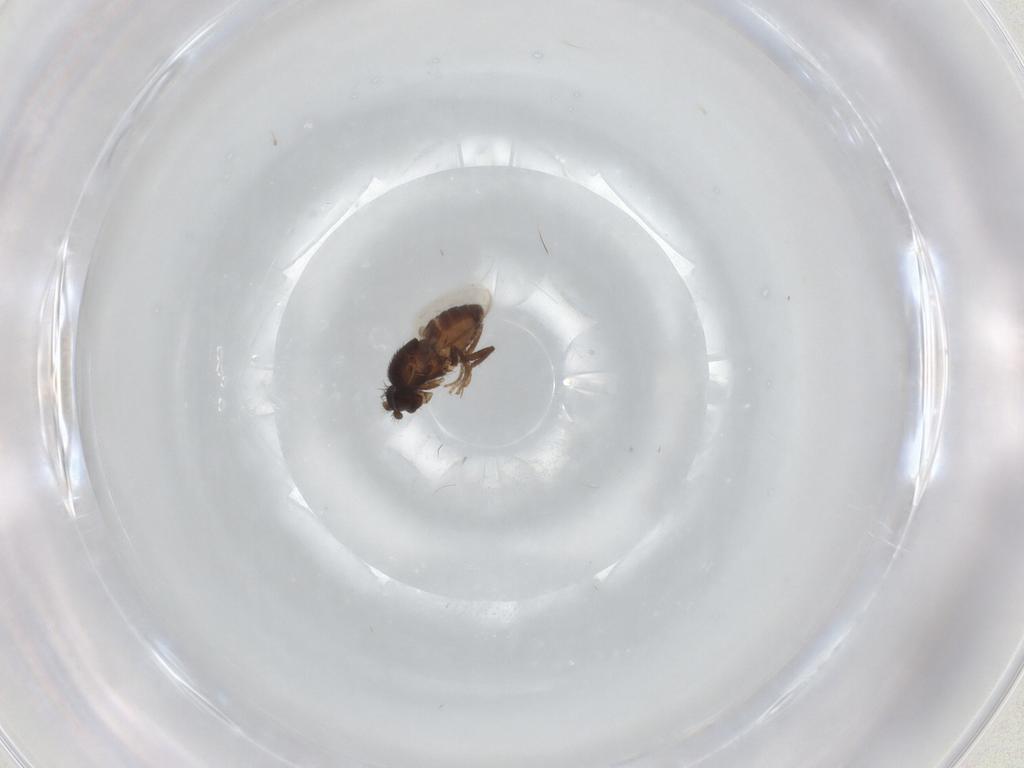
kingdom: Animalia
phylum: Arthropoda
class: Insecta
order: Diptera
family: Sphaeroceridae
